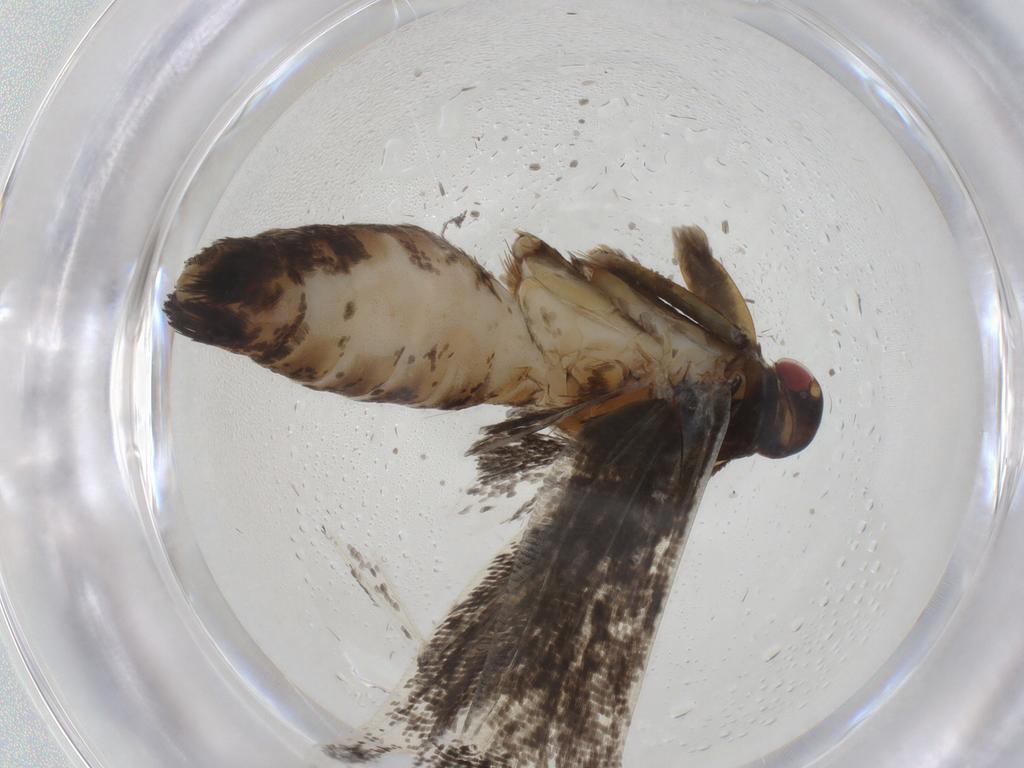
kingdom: Animalia
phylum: Arthropoda
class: Insecta
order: Lepidoptera
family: Gelechiidae
